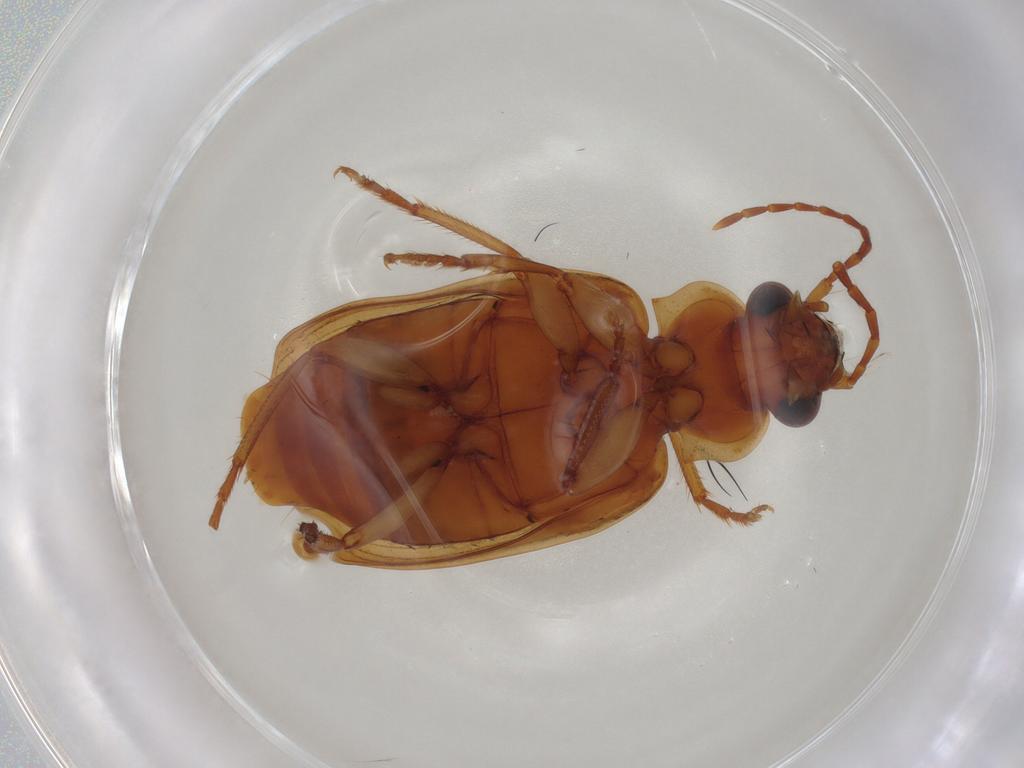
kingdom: Animalia
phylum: Arthropoda
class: Insecta
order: Coleoptera
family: Carabidae
